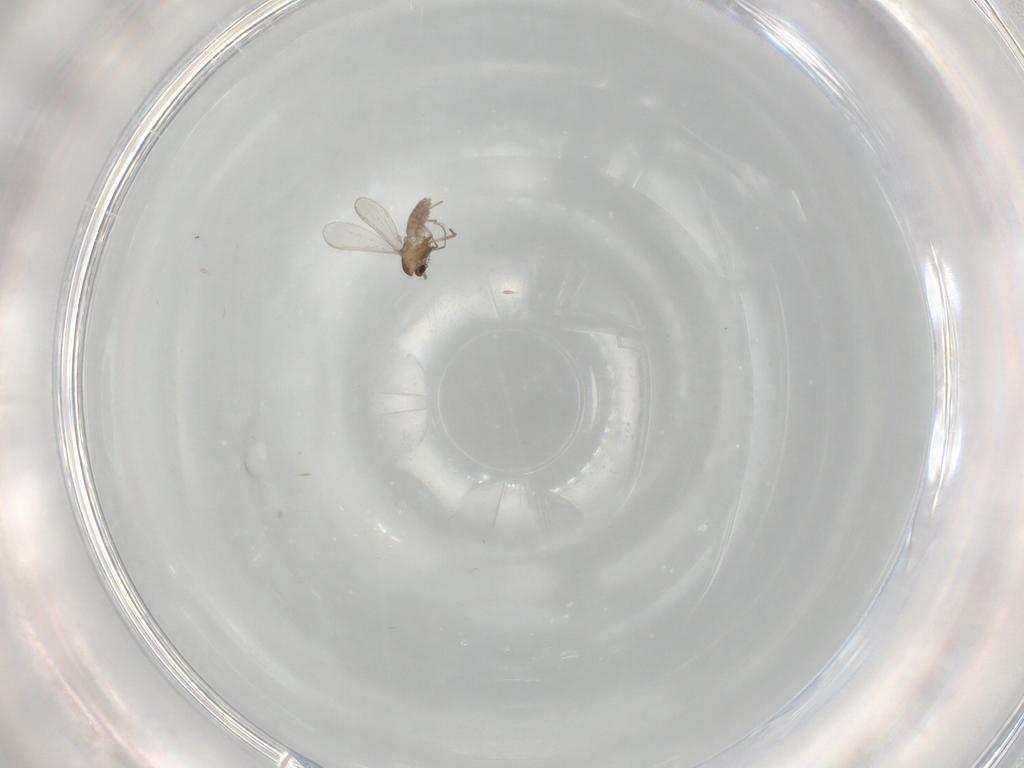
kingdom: Animalia
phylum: Arthropoda
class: Insecta
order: Diptera
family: Chironomidae
